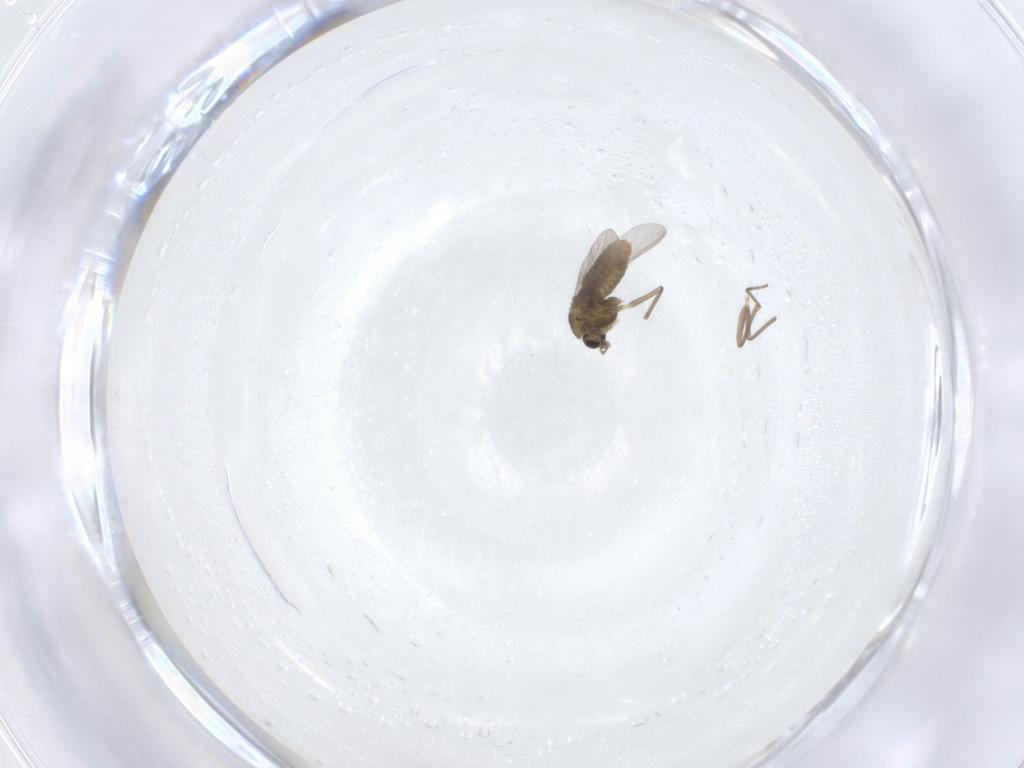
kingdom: Animalia
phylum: Arthropoda
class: Insecta
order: Diptera
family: Chironomidae
